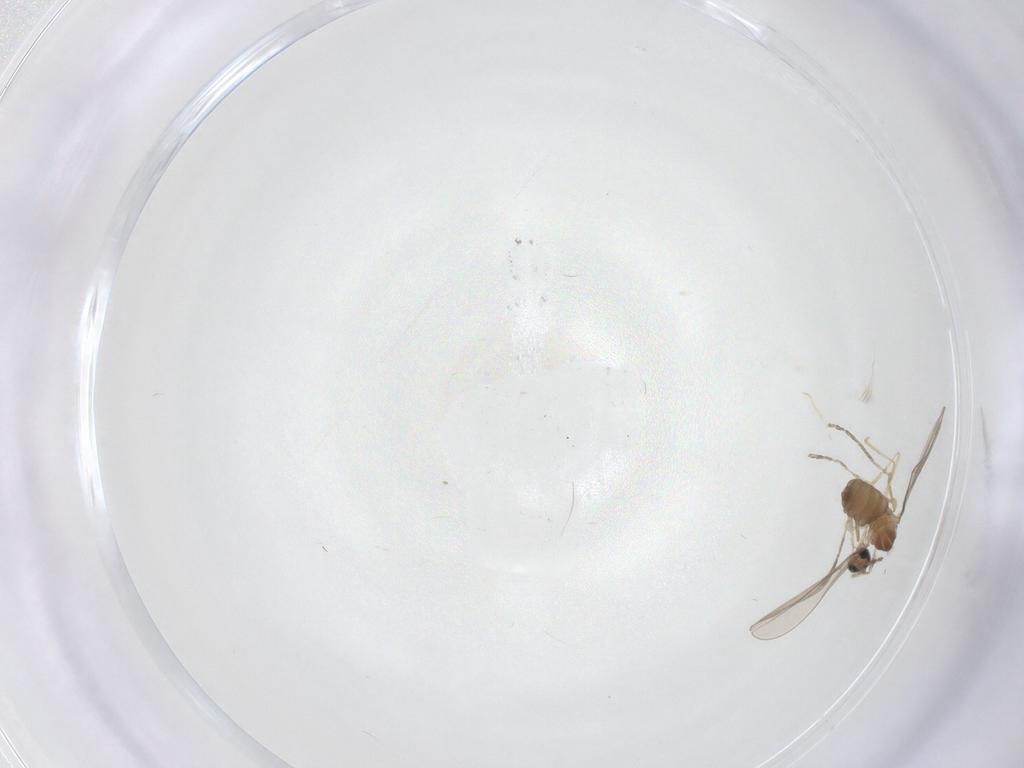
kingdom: Animalia
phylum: Arthropoda
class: Insecta
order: Diptera
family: Cecidomyiidae
